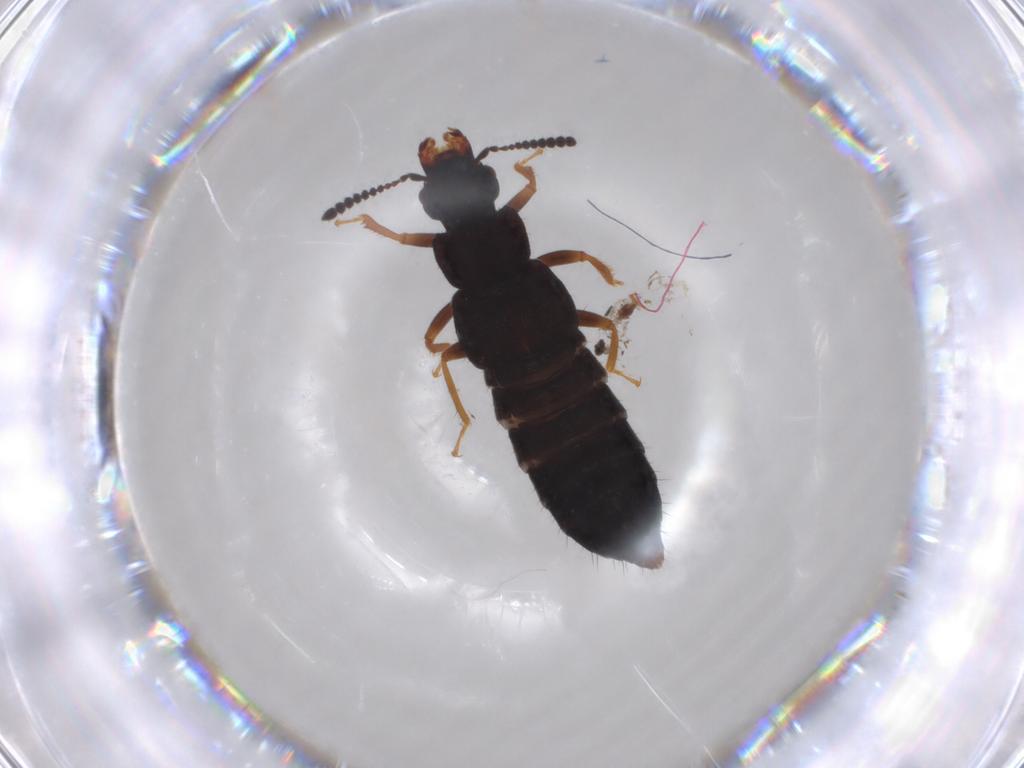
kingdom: Animalia
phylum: Arthropoda
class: Insecta
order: Coleoptera
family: Staphylinidae
